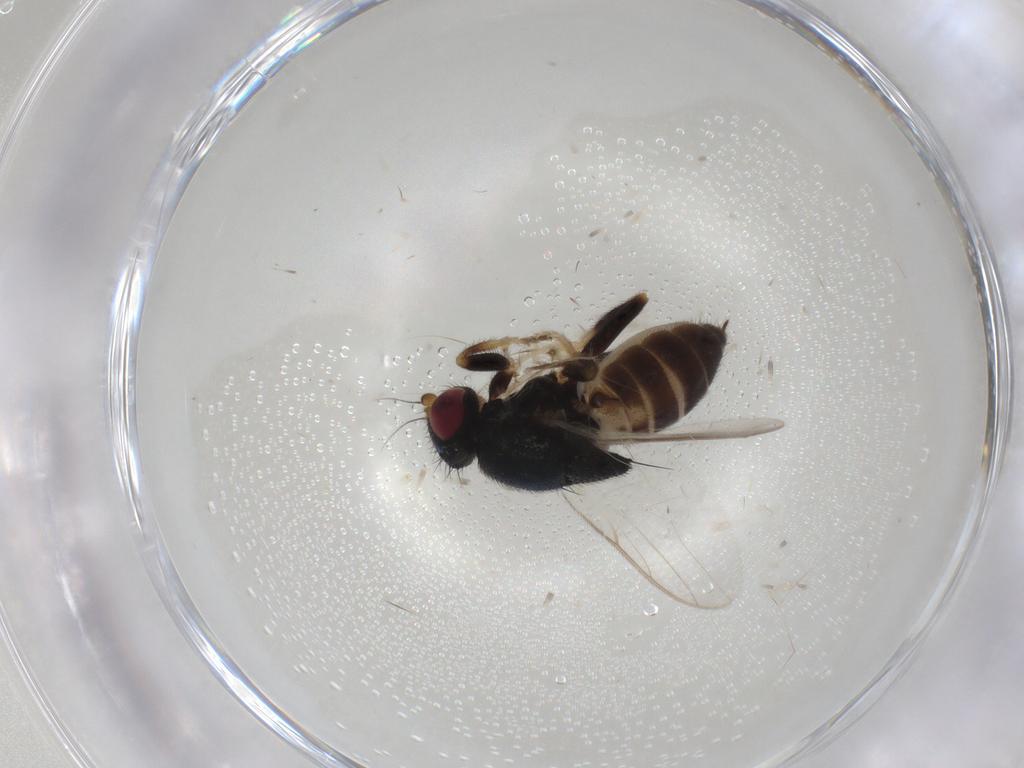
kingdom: Animalia
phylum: Arthropoda
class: Insecta
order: Diptera
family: Chloropidae
